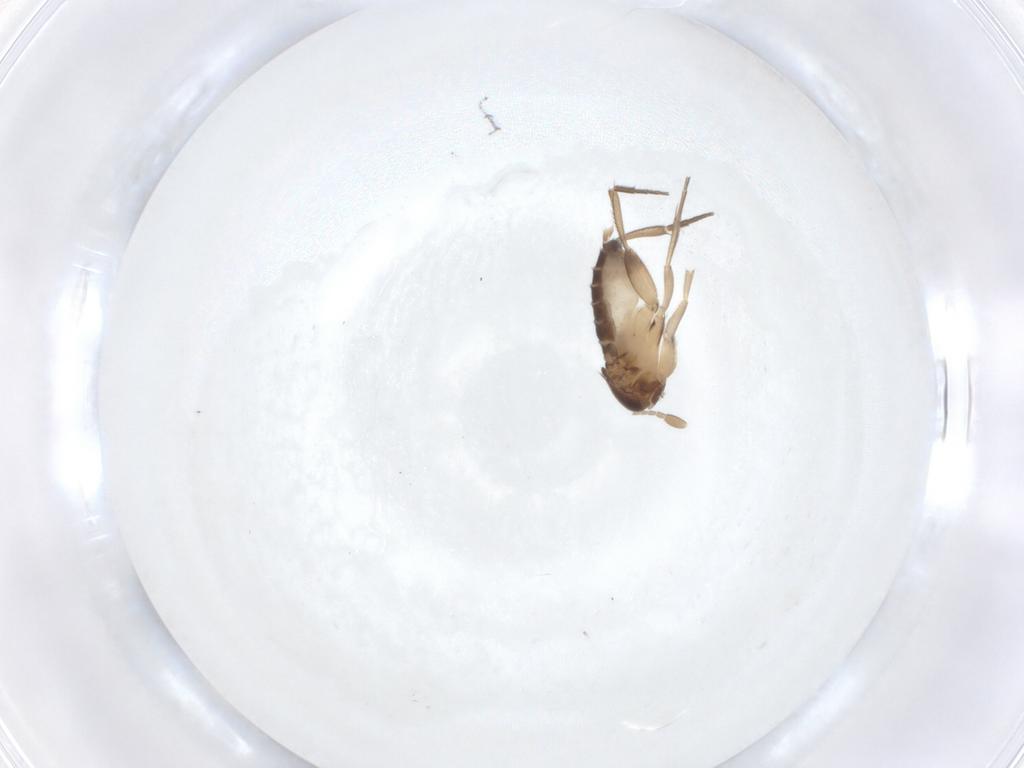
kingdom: Animalia
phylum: Arthropoda
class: Insecta
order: Diptera
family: Phoridae
